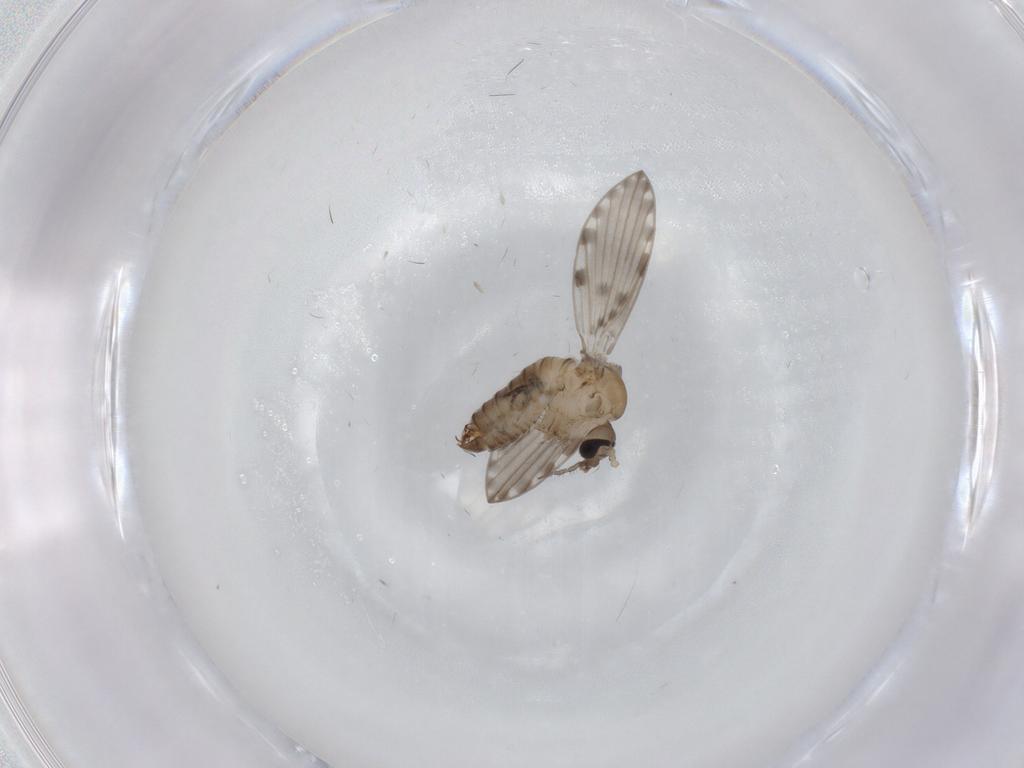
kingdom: Animalia
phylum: Arthropoda
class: Insecta
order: Diptera
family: Psychodidae
